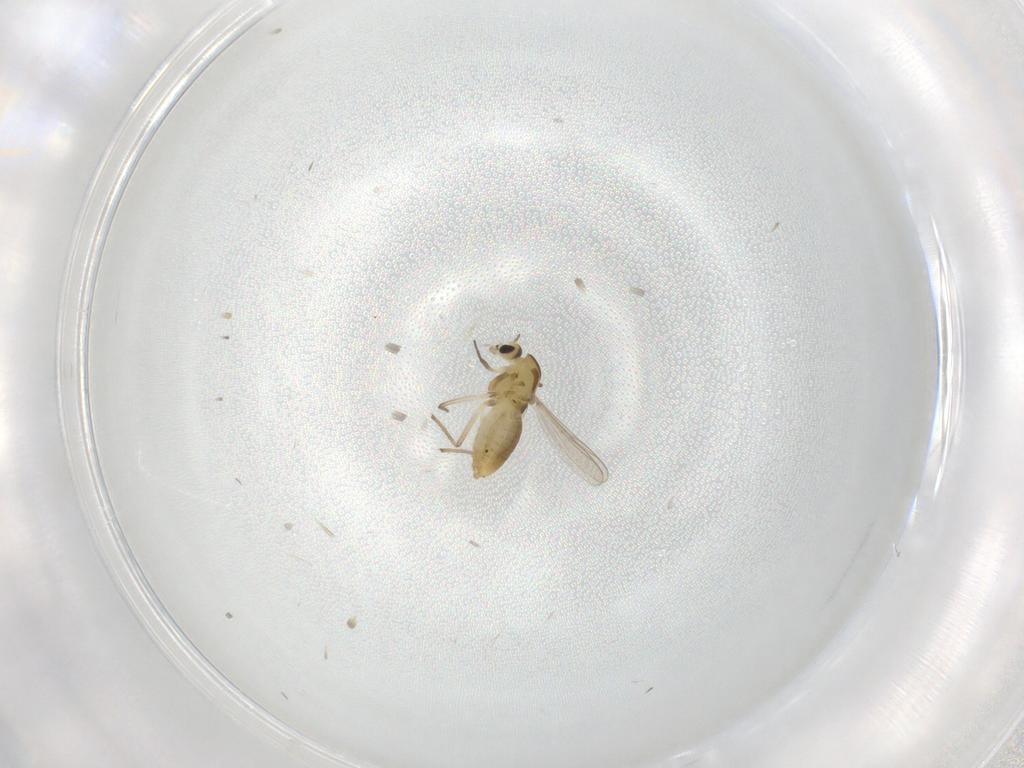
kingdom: Animalia
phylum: Arthropoda
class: Insecta
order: Diptera
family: Chironomidae
